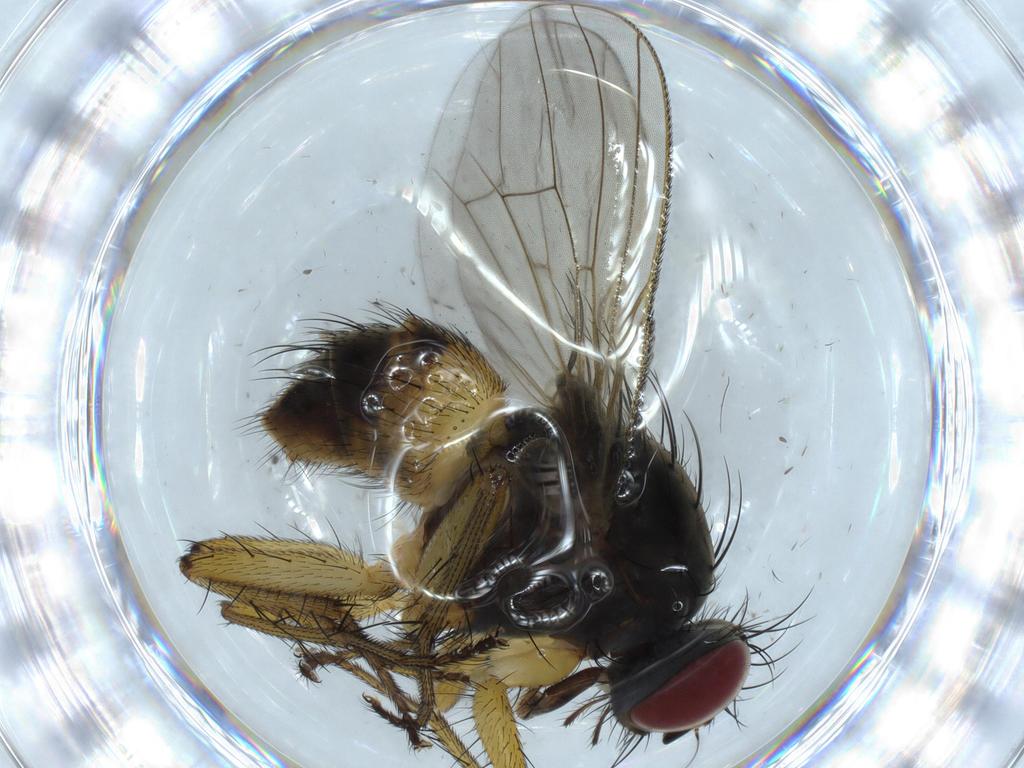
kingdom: Animalia
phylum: Arthropoda
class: Insecta
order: Diptera
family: Muscidae
